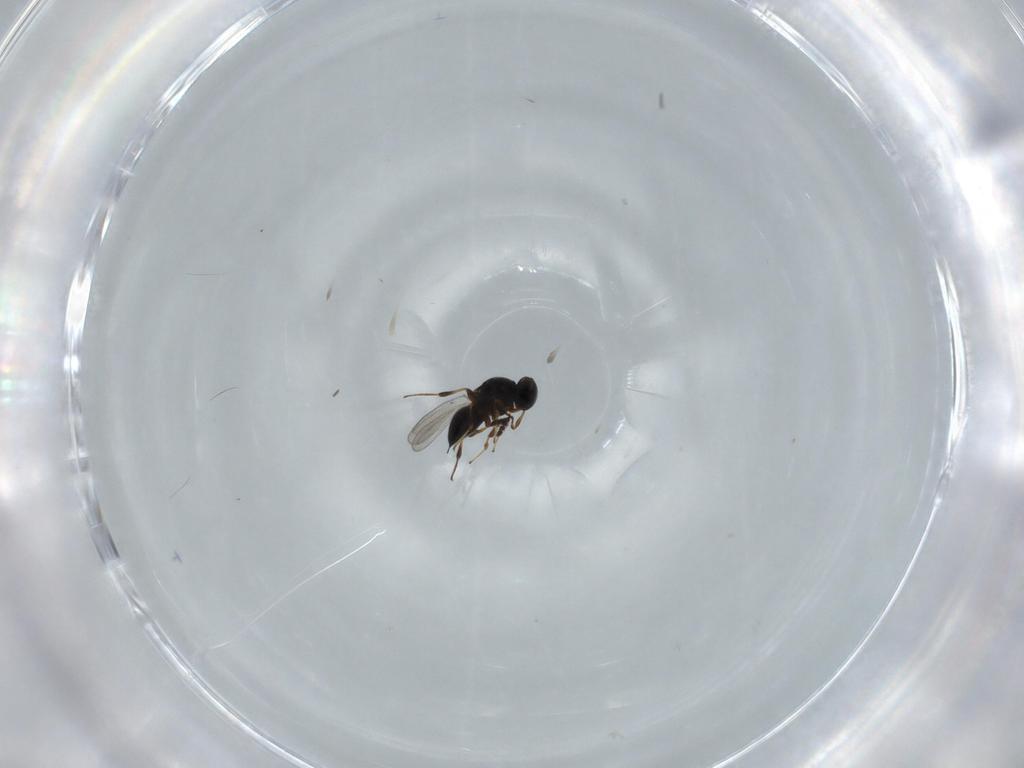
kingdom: Animalia
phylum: Arthropoda
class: Insecta
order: Hymenoptera
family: Platygastridae
